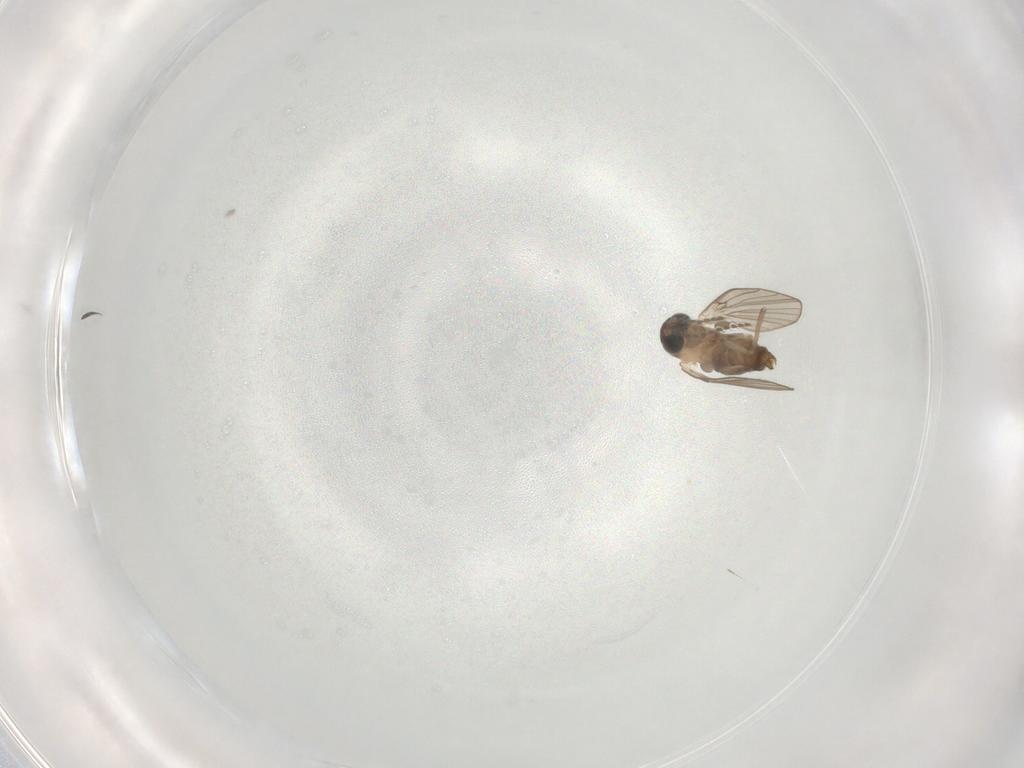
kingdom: Animalia
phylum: Arthropoda
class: Insecta
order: Diptera
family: Psychodidae
